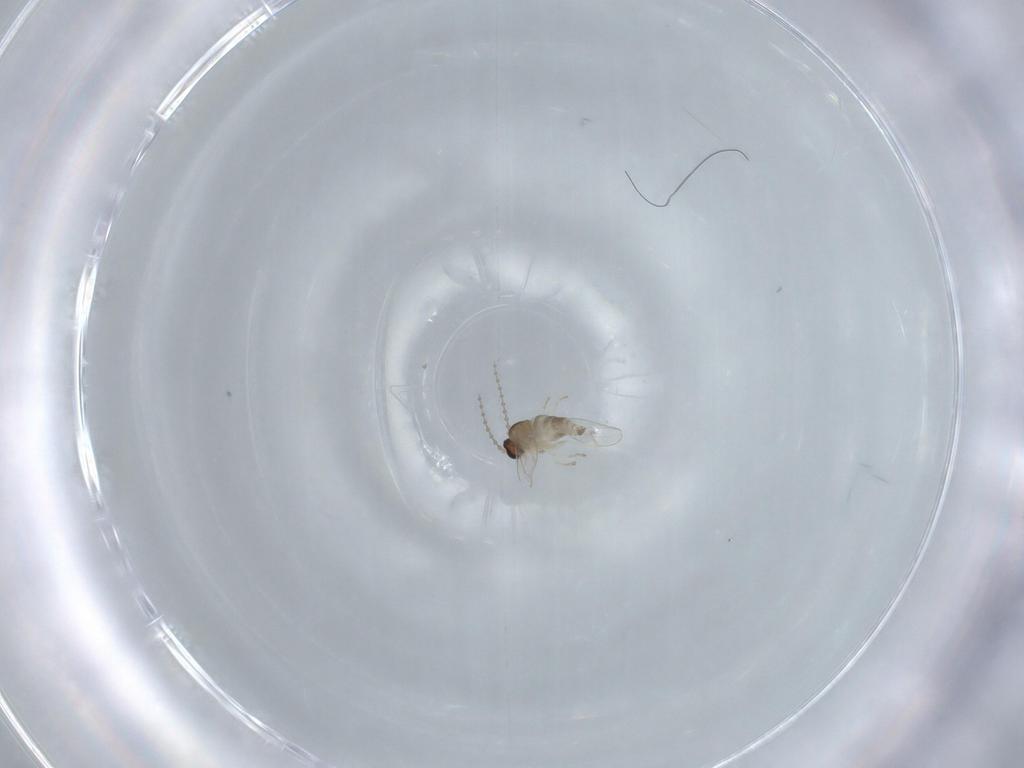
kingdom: Animalia
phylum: Arthropoda
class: Insecta
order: Diptera
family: Cecidomyiidae
